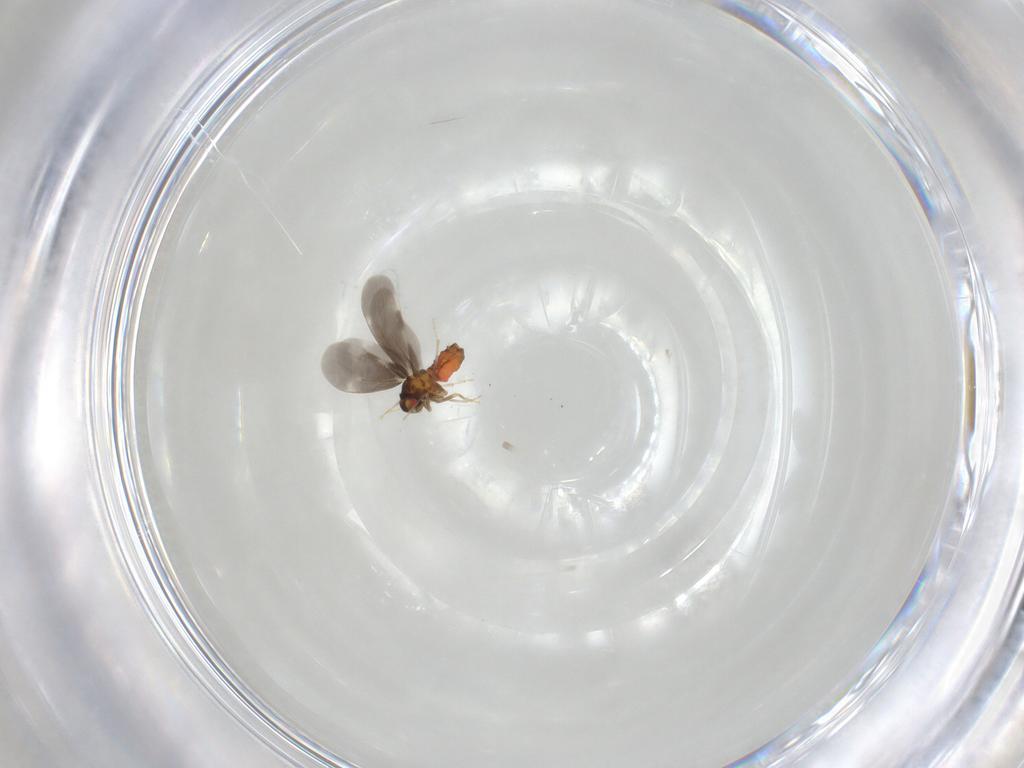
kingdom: Animalia
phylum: Arthropoda
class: Insecta
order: Hemiptera
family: Aleyrodidae
